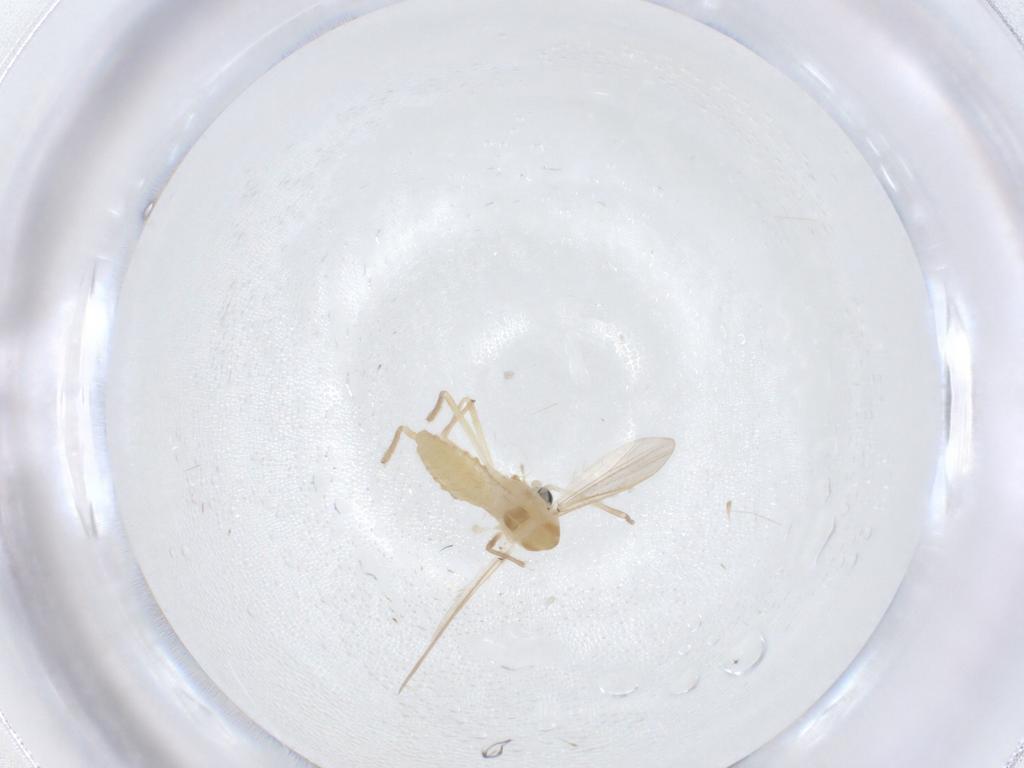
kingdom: Animalia
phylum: Arthropoda
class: Insecta
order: Diptera
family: Chironomidae
